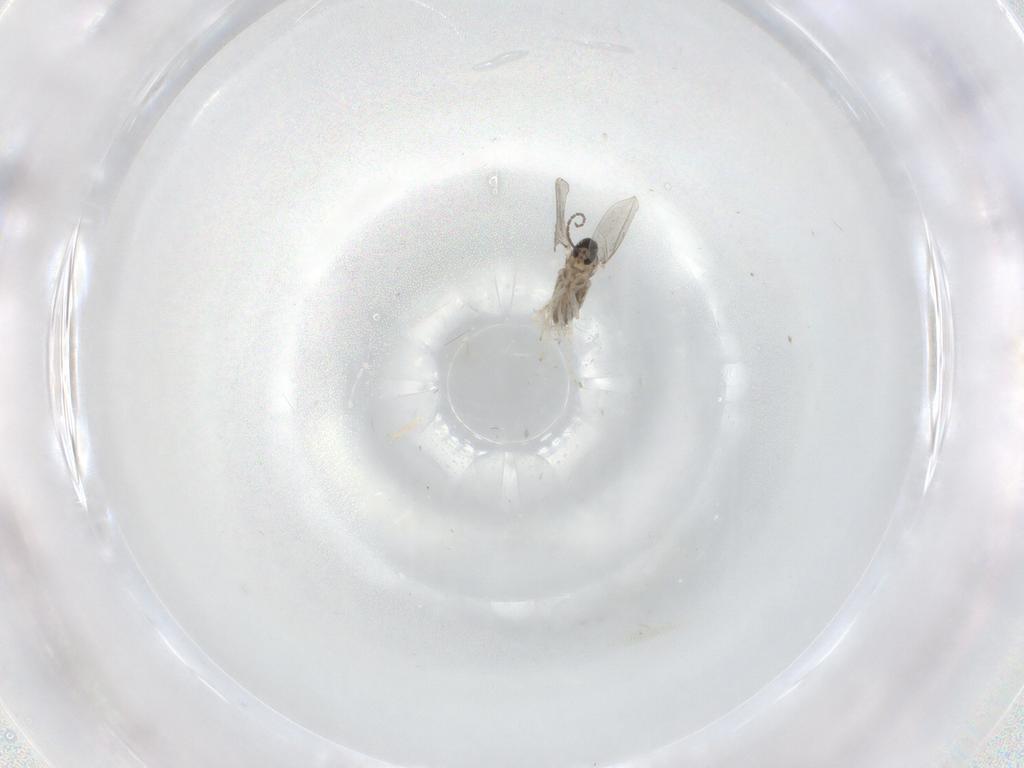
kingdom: Animalia
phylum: Arthropoda
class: Insecta
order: Diptera
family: Cecidomyiidae
